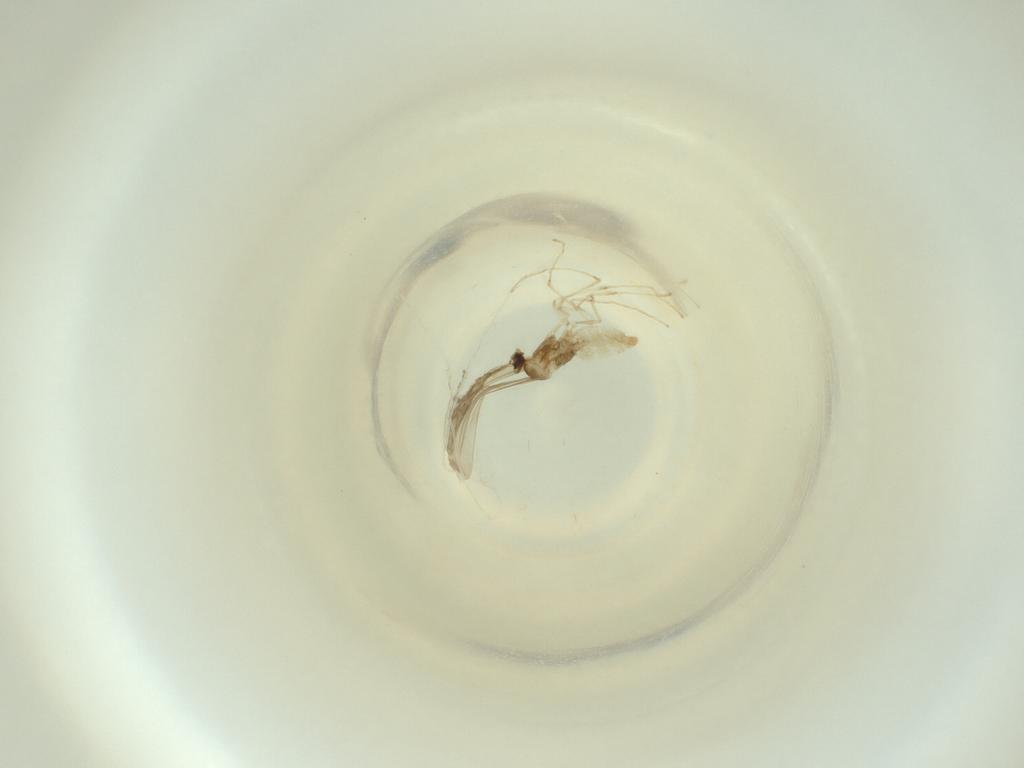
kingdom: Animalia
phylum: Arthropoda
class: Insecta
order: Diptera
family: Cecidomyiidae
